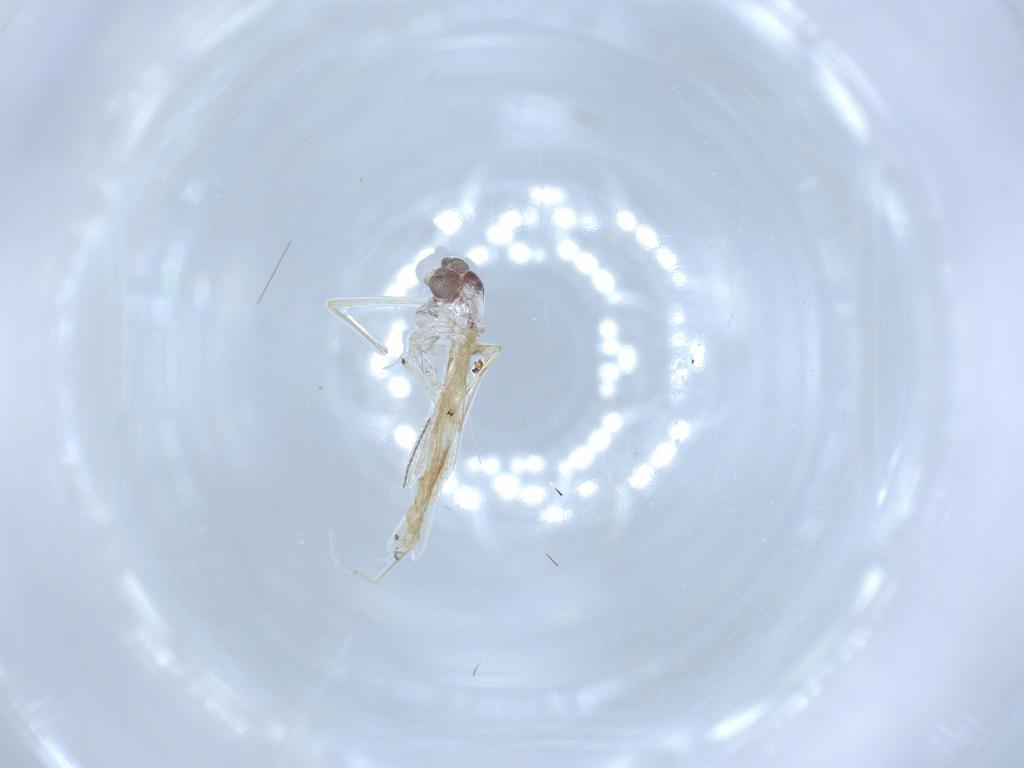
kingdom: Animalia
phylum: Arthropoda
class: Insecta
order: Diptera
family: Chironomidae
